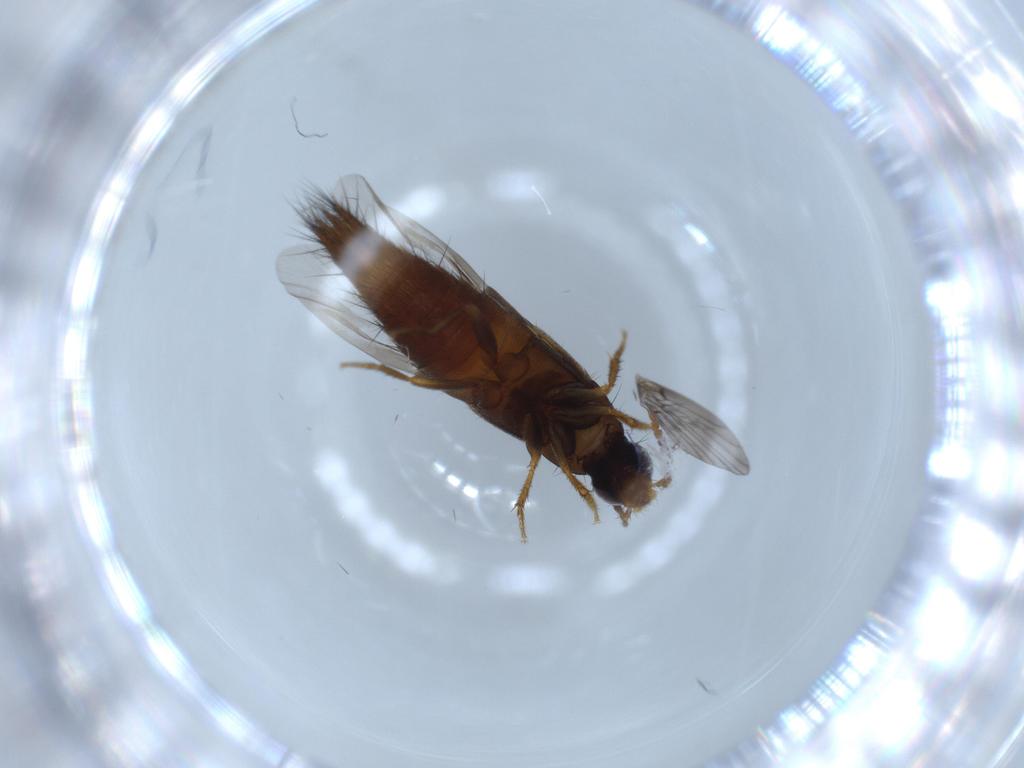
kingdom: Animalia
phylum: Arthropoda
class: Insecta
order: Coleoptera
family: Staphylinidae
